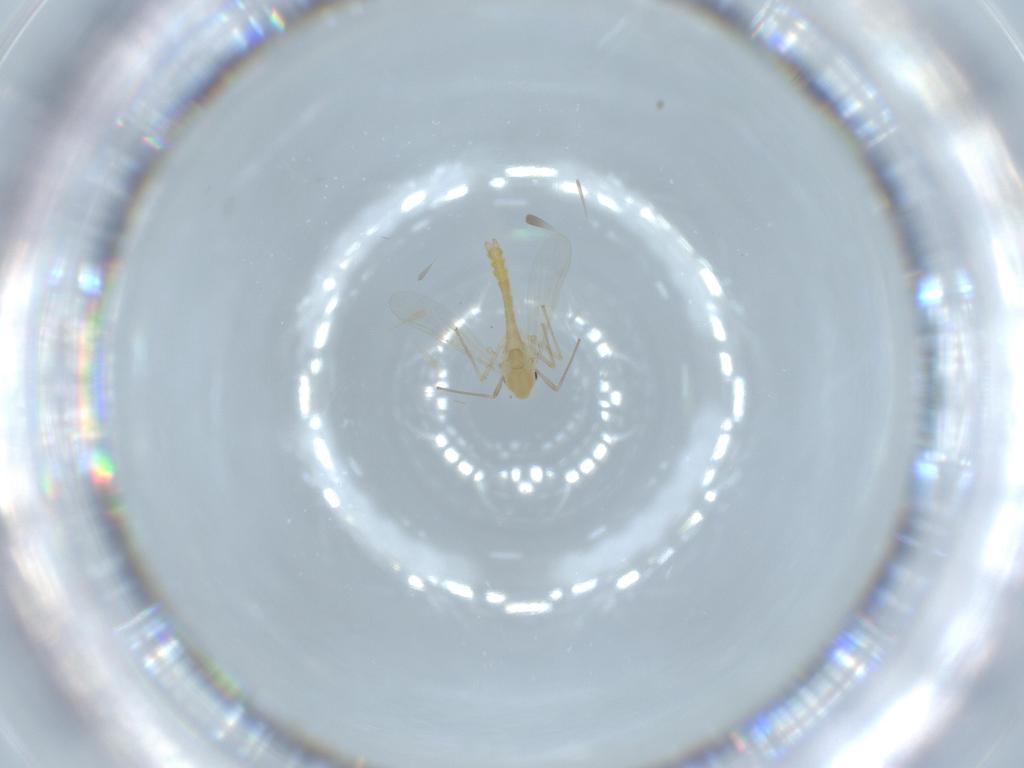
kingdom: Animalia
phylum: Arthropoda
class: Insecta
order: Diptera
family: Chironomidae
